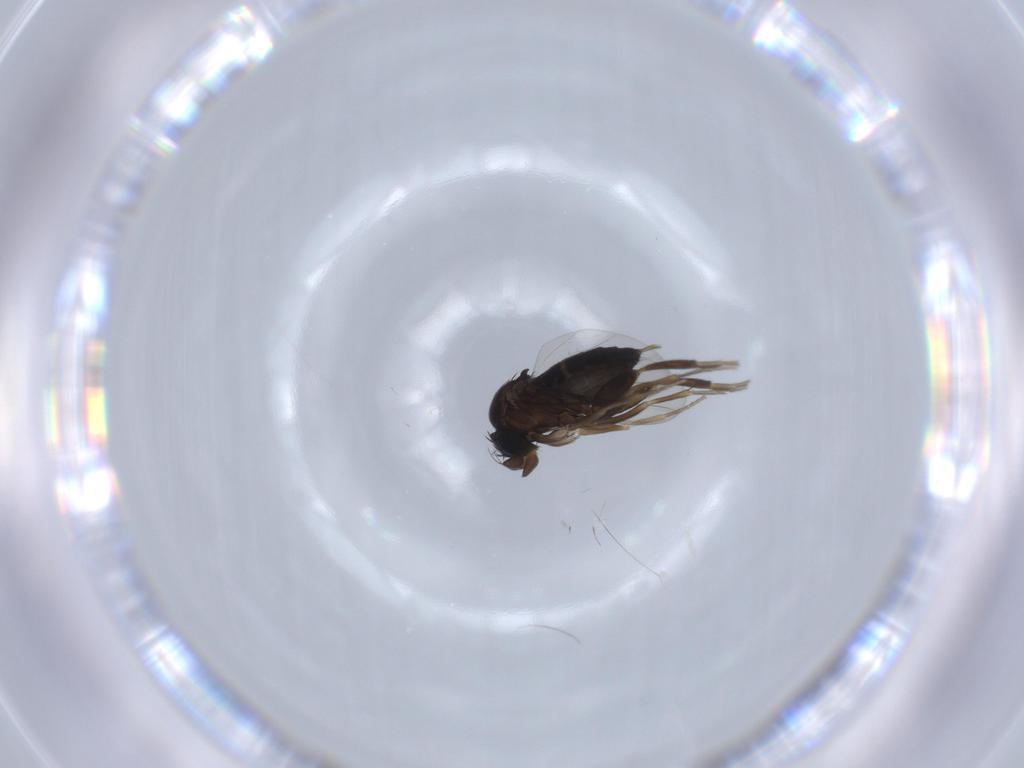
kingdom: Animalia
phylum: Arthropoda
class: Insecta
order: Diptera
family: Phoridae
